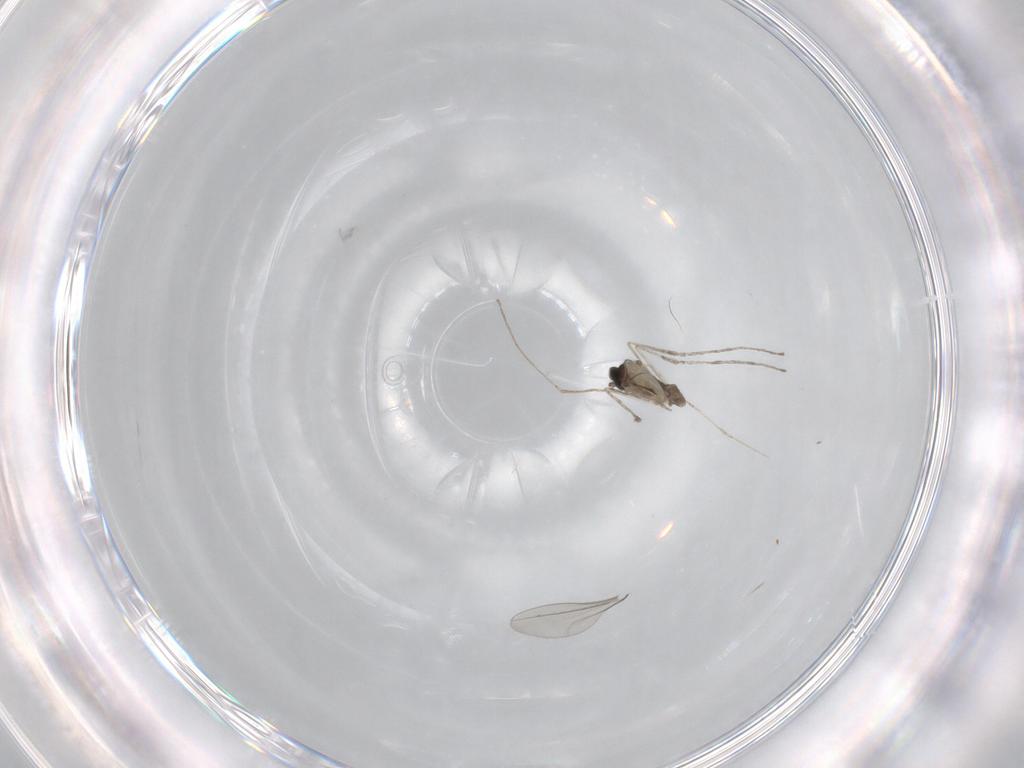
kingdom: Animalia
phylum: Arthropoda
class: Insecta
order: Diptera
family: Cecidomyiidae
